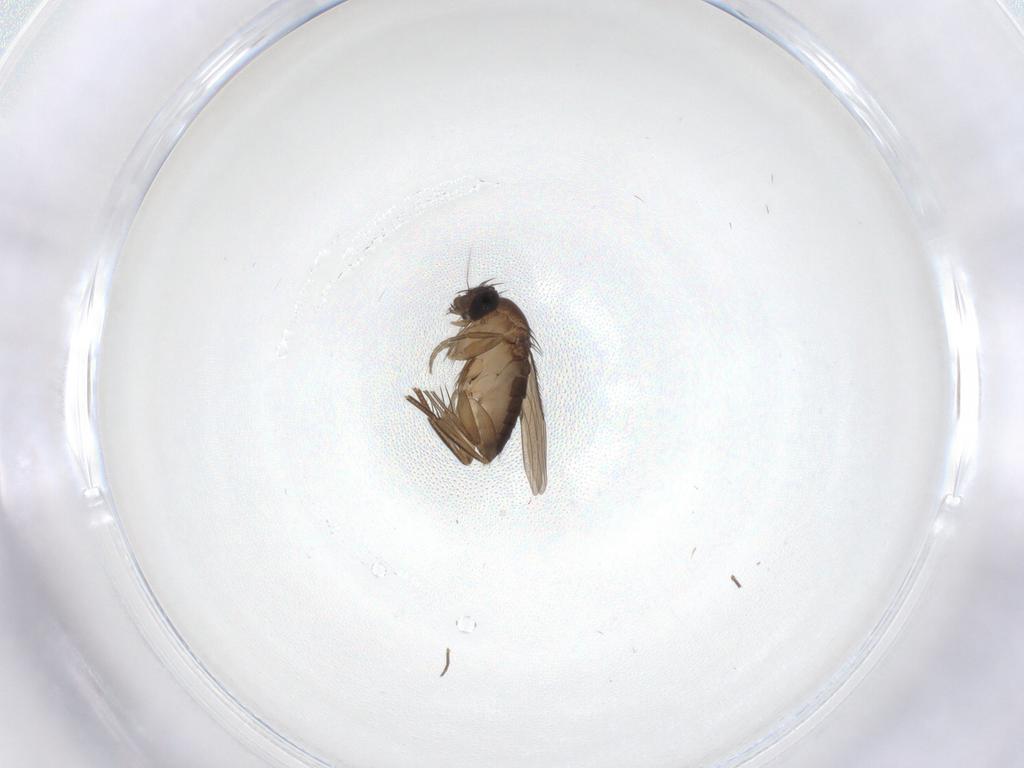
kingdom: Animalia
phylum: Arthropoda
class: Insecta
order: Diptera
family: Phoridae
